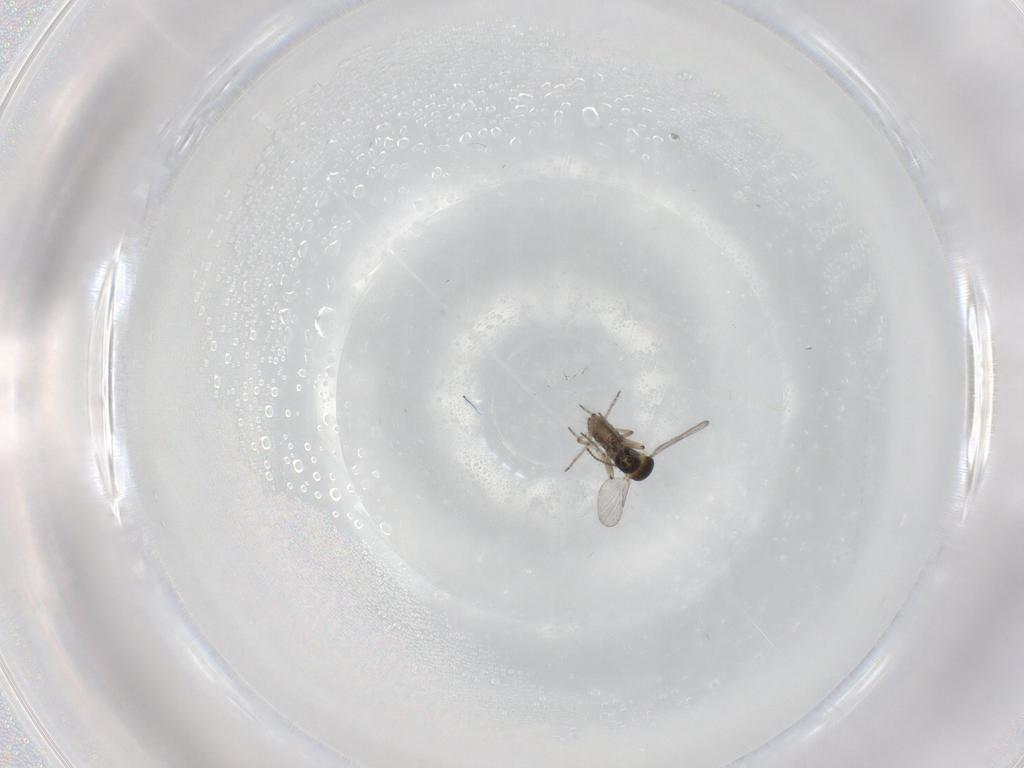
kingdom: Animalia
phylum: Arthropoda
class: Insecta
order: Diptera
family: Ceratopogonidae
